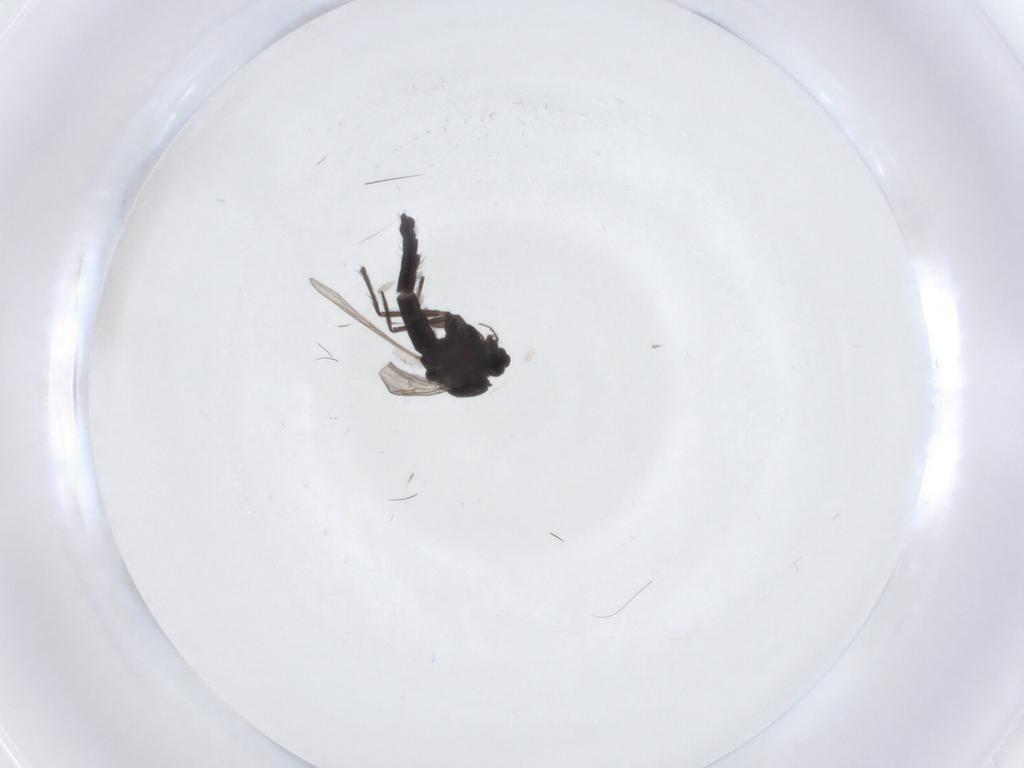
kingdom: Animalia
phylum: Arthropoda
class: Insecta
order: Diptera
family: Chironomidae
